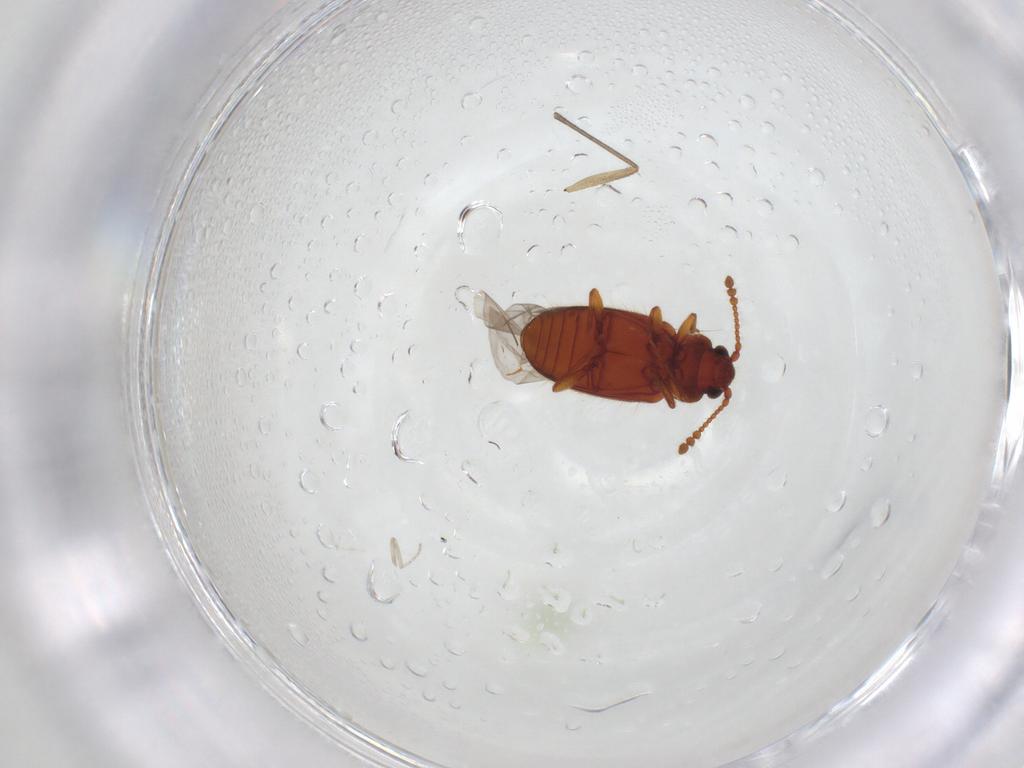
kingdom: Animalia
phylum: Arthropoda
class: Insecta
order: Coleoptera
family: Cryptophagidae
